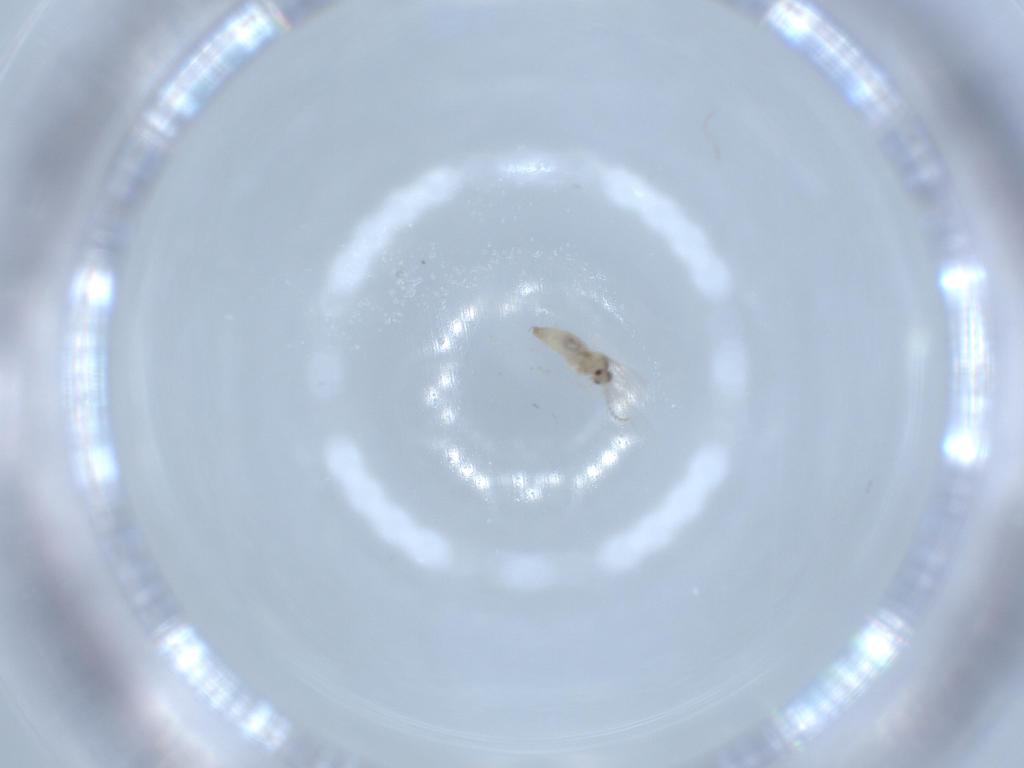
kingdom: Animalia
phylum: Arthropoda
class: Insecta
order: Diptera
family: Cecidomyiidae
